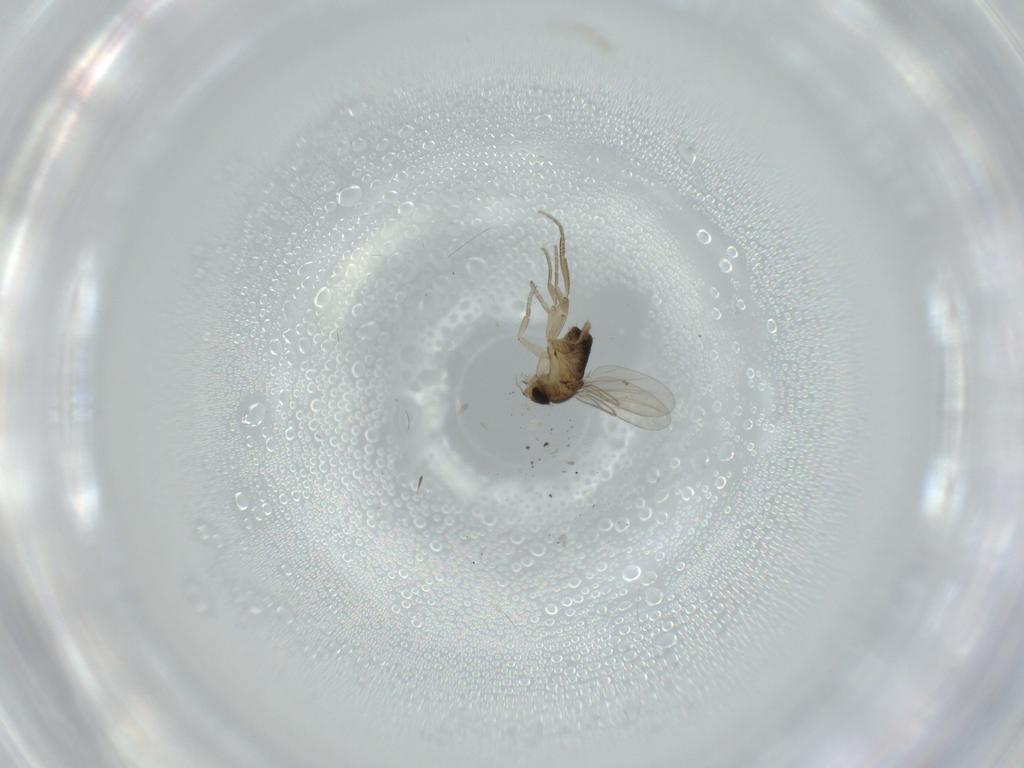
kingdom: Animalia
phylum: Arthropoda
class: Insecta
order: Diptera
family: Phoridae
